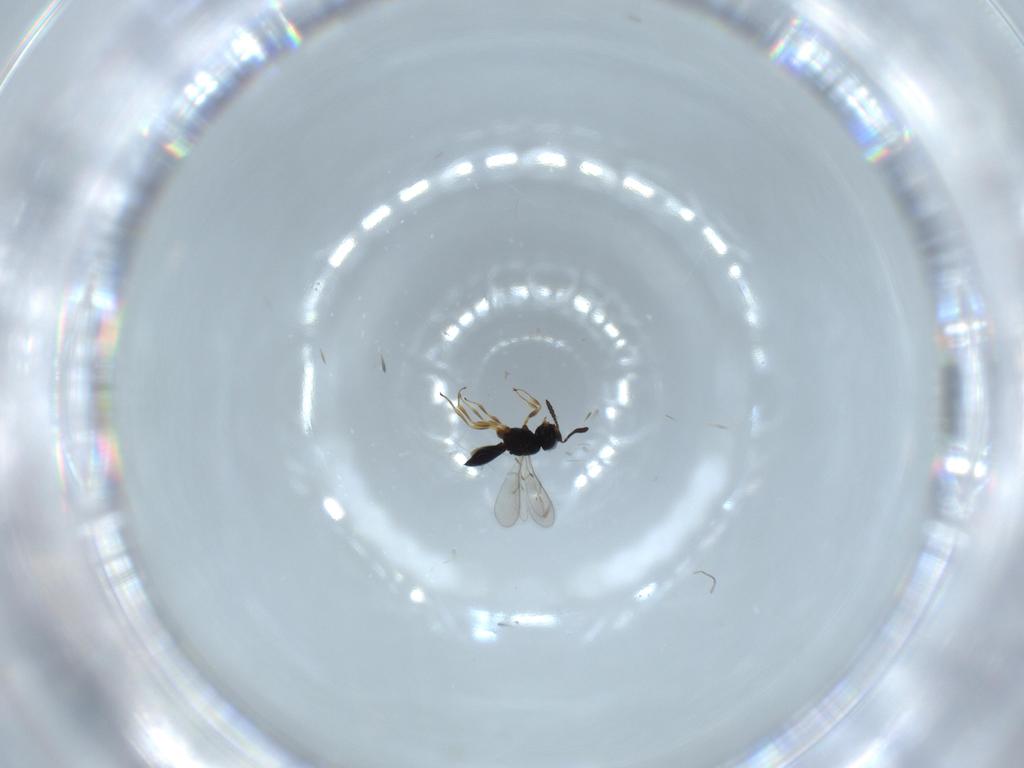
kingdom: Animalia
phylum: Arthropoda
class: Insecta
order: Hymenoptera
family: Scelionidae
